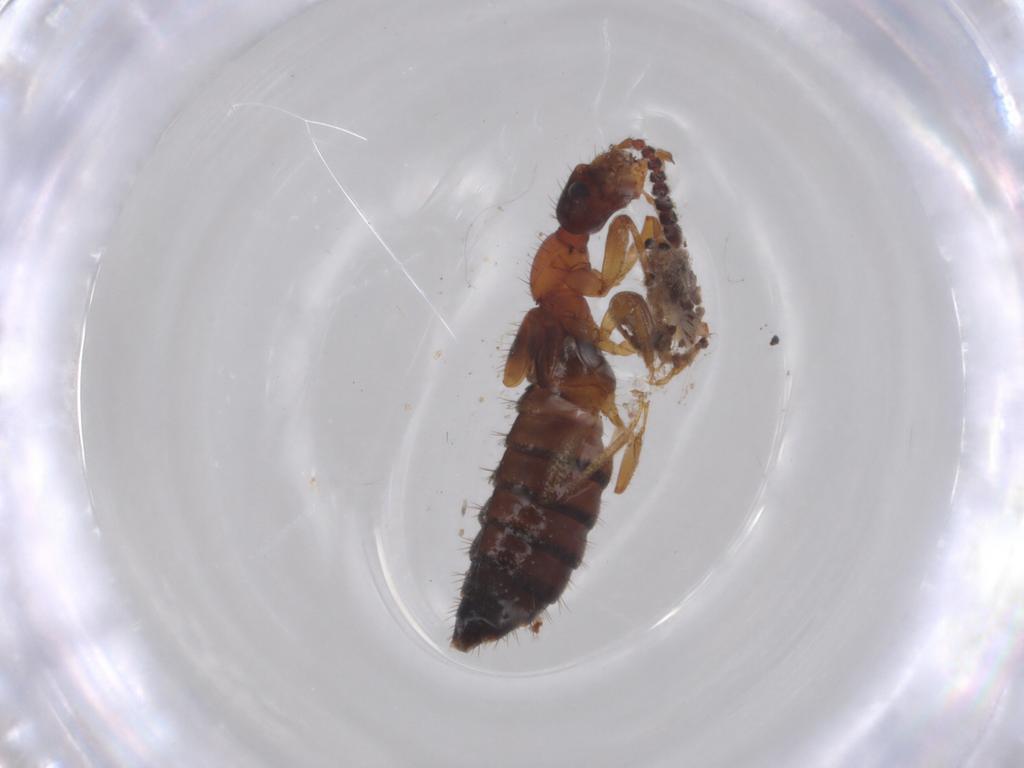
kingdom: Animalia
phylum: Arthropoda
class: Insecta
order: Coleoptera
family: Staphylinidae
